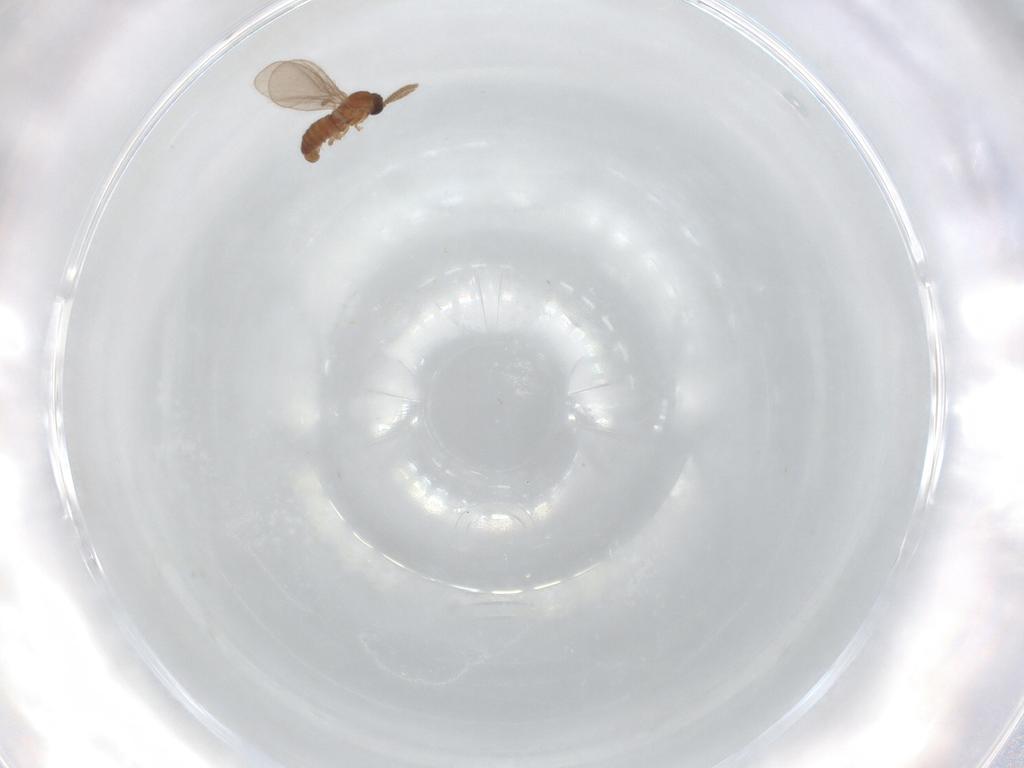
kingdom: Animalia
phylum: Arthropoda
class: Insecta
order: Diptera
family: Sciaridae
